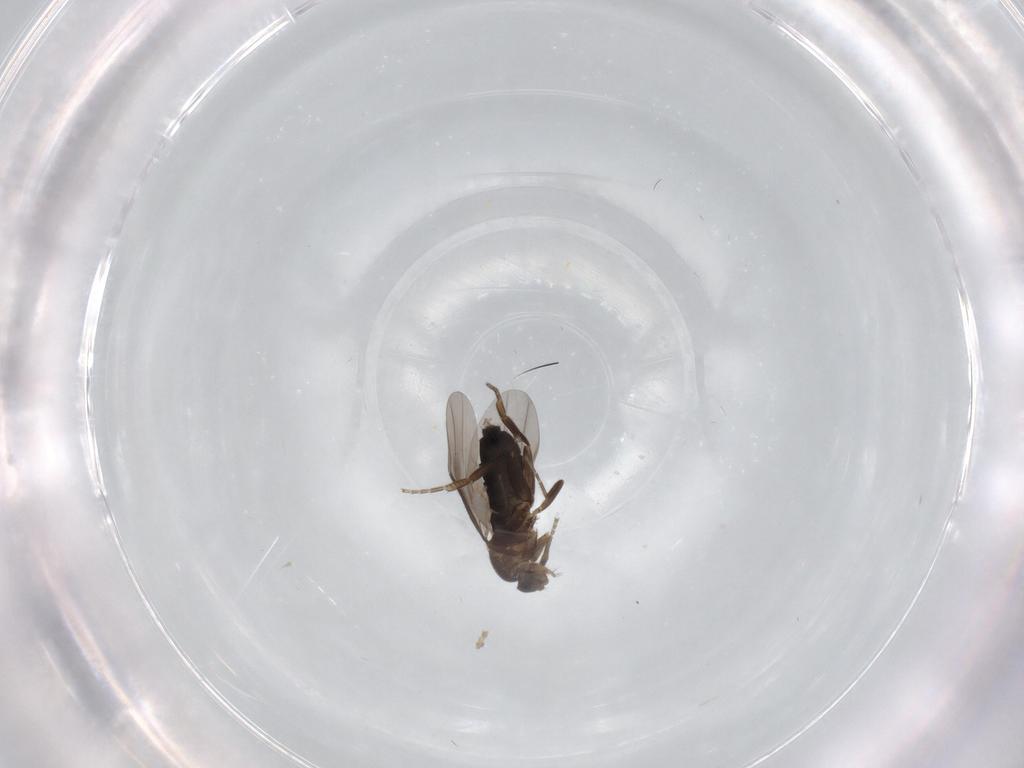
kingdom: Animalia
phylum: Arthropoda
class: Insecta
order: Diptera
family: Phoridae
